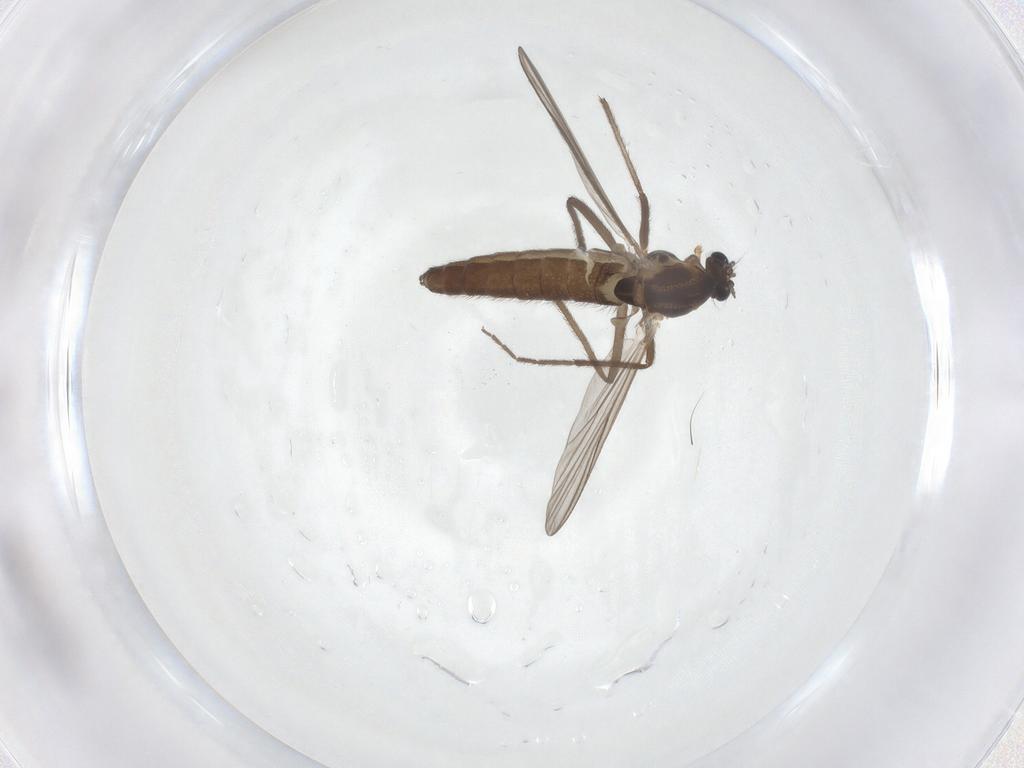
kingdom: Animalia
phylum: Arthropoda
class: Insecta
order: Diptera
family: Chironomidae
